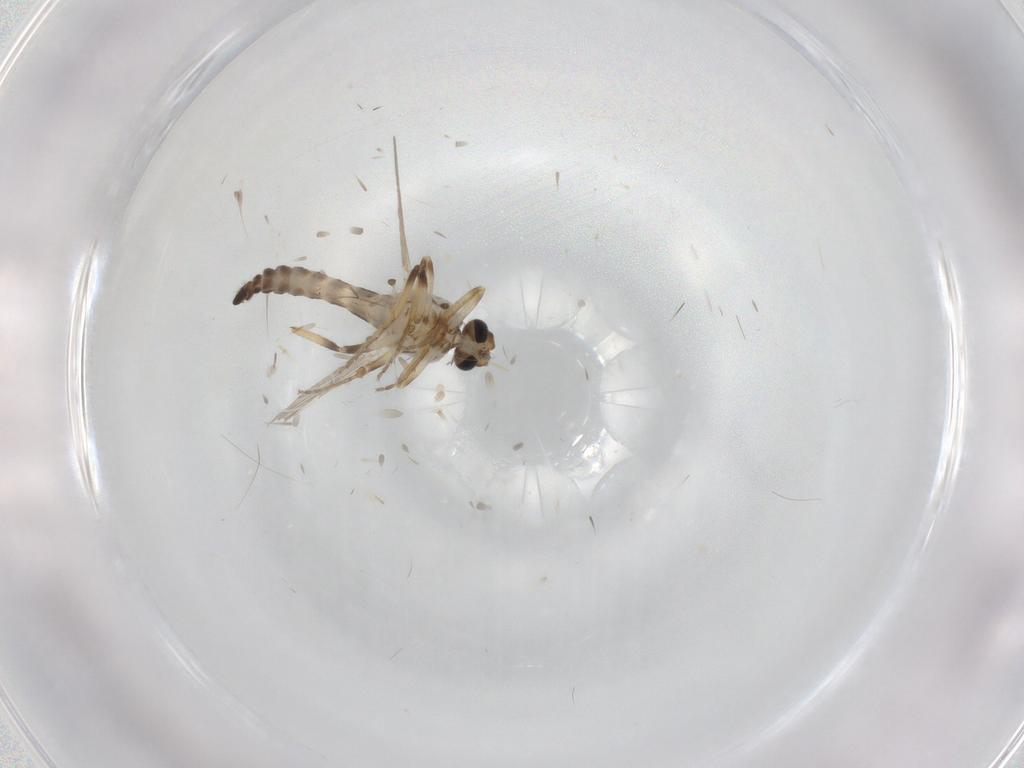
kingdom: Animalia
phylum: Arthropoda
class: Insecta
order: Diptera
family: Ceratopogonidae
